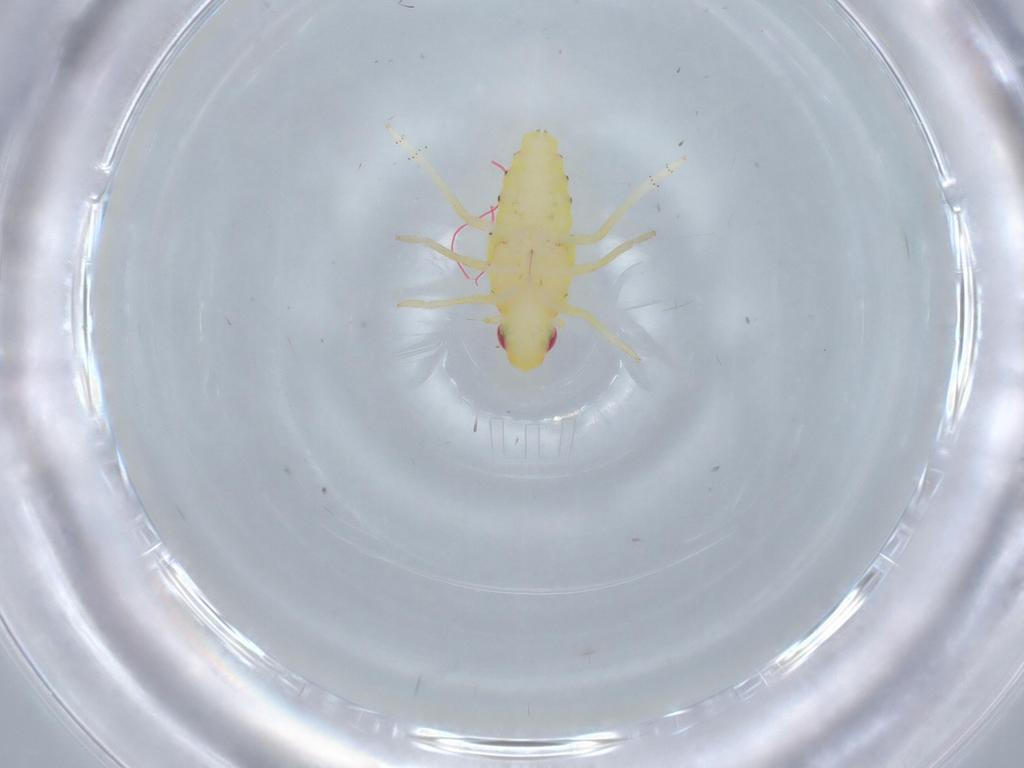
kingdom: Animalia
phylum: Arthropoda
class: Insecta
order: Hemiptera
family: Tropiduchidae
